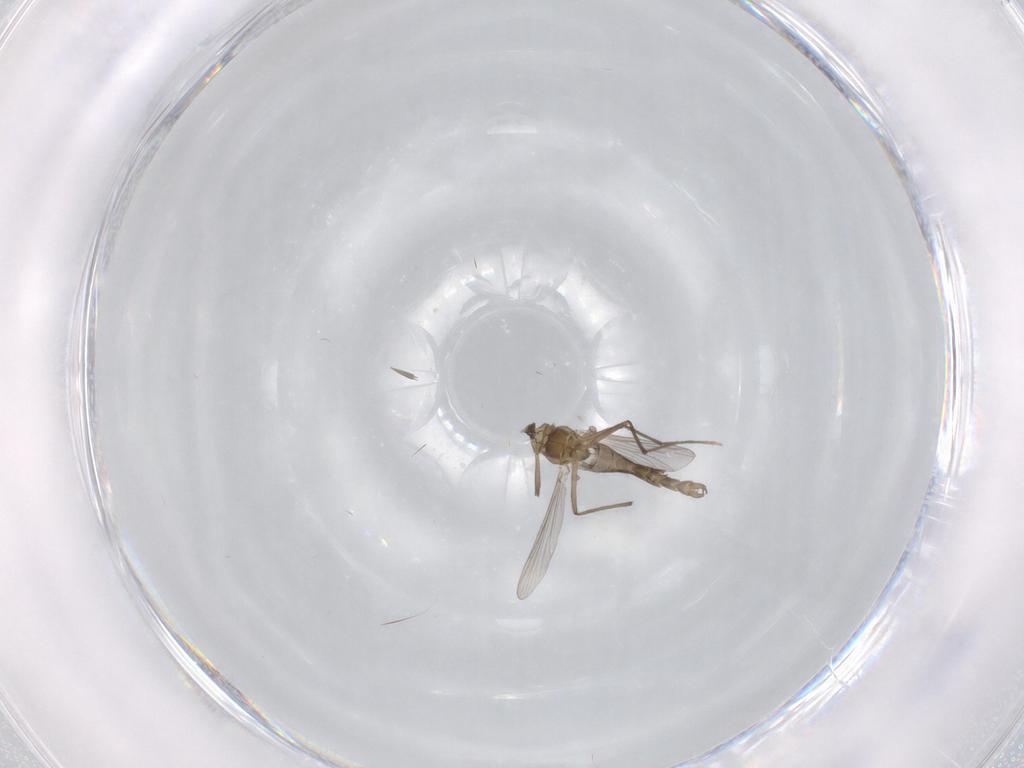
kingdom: Animalia
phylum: Arthropoda
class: Insecta
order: Diptera
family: Chironomidae
